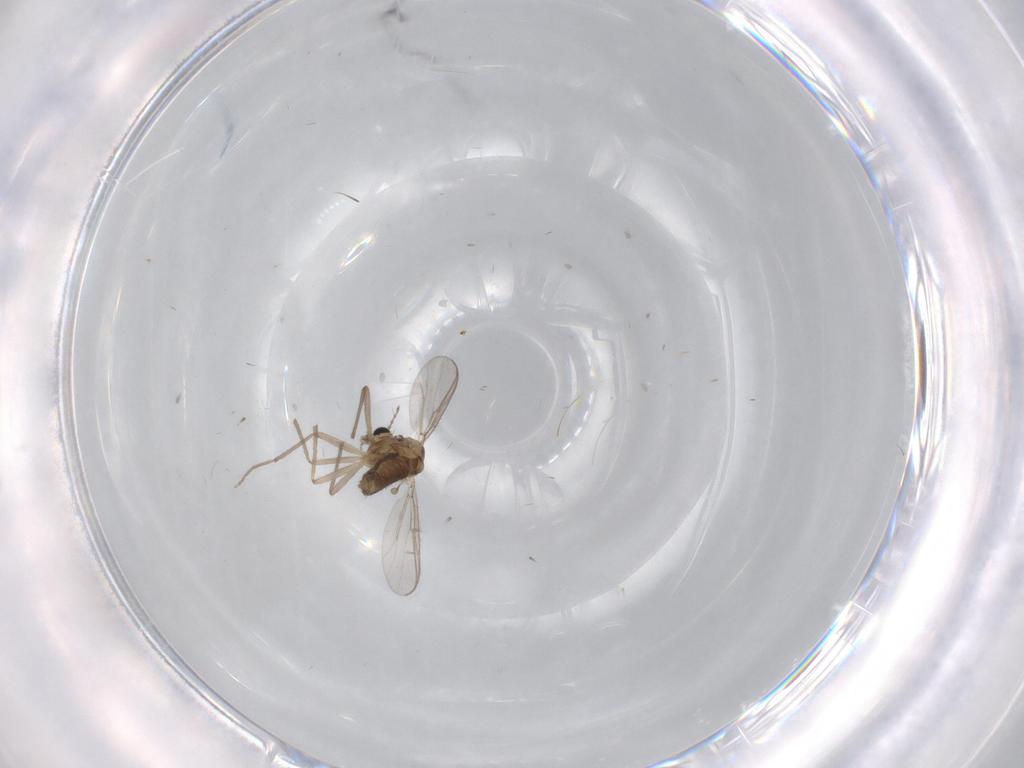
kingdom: Animalia
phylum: Arthropoda
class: Insecta
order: Diptera
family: Chironomidae
